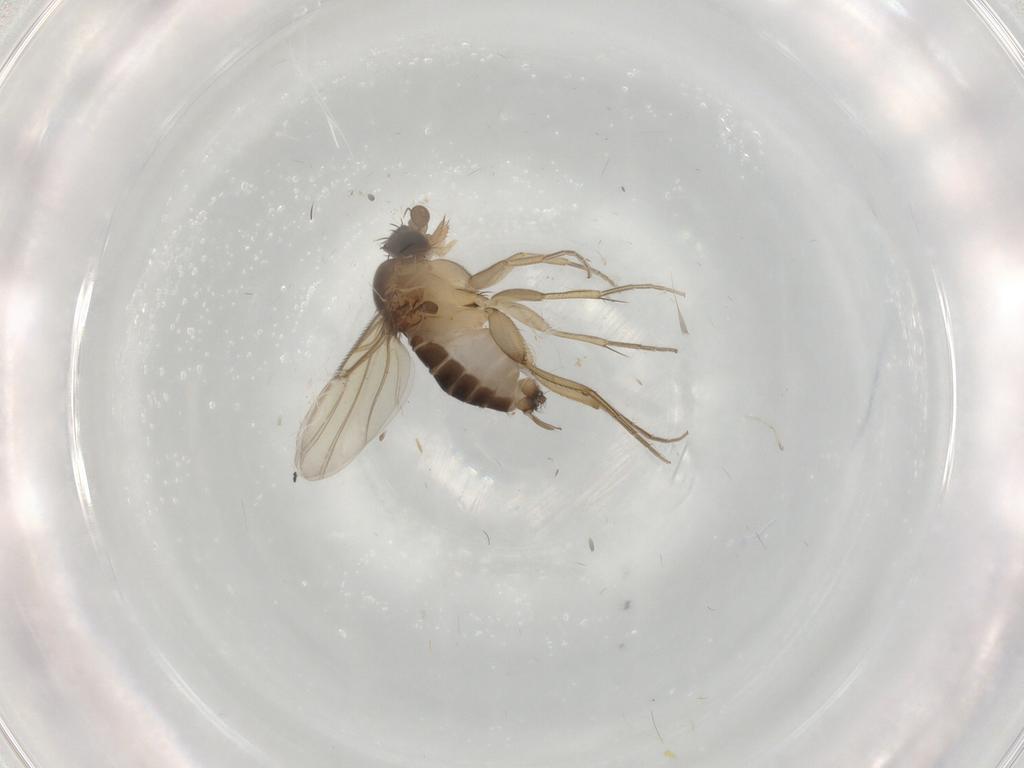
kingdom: Animalia
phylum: Arthropoda
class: Insecta
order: Diptera
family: Phoridae
